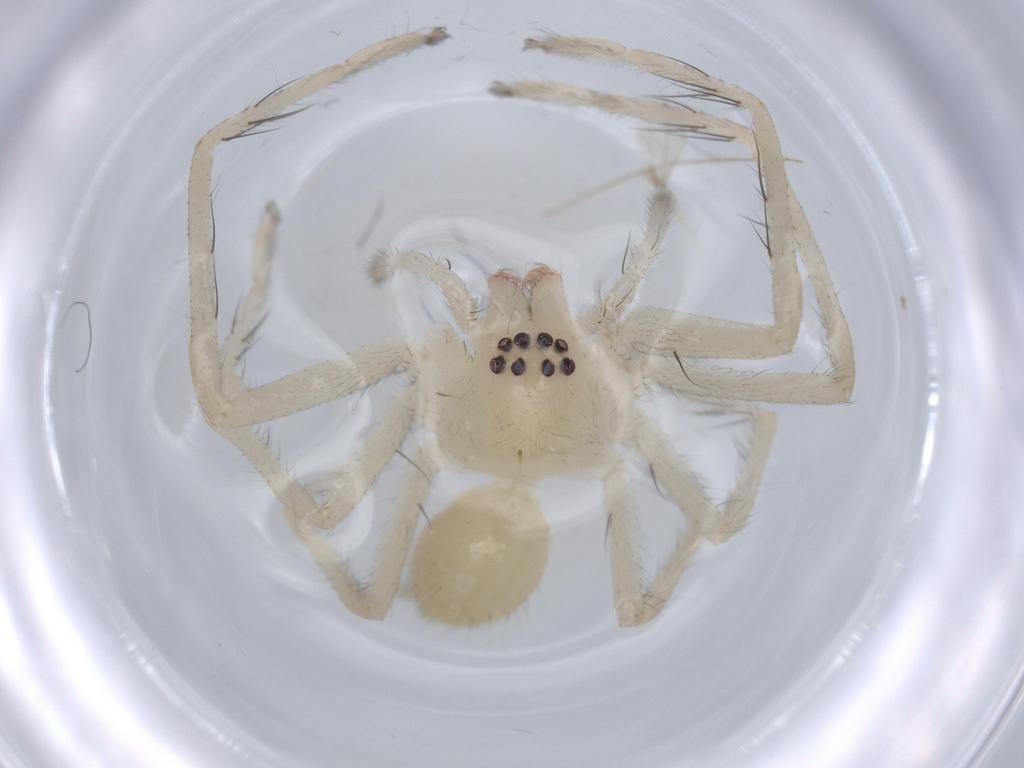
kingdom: Animalia
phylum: Arthropoda
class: Arachnida
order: Araneae
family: Sparassidae
